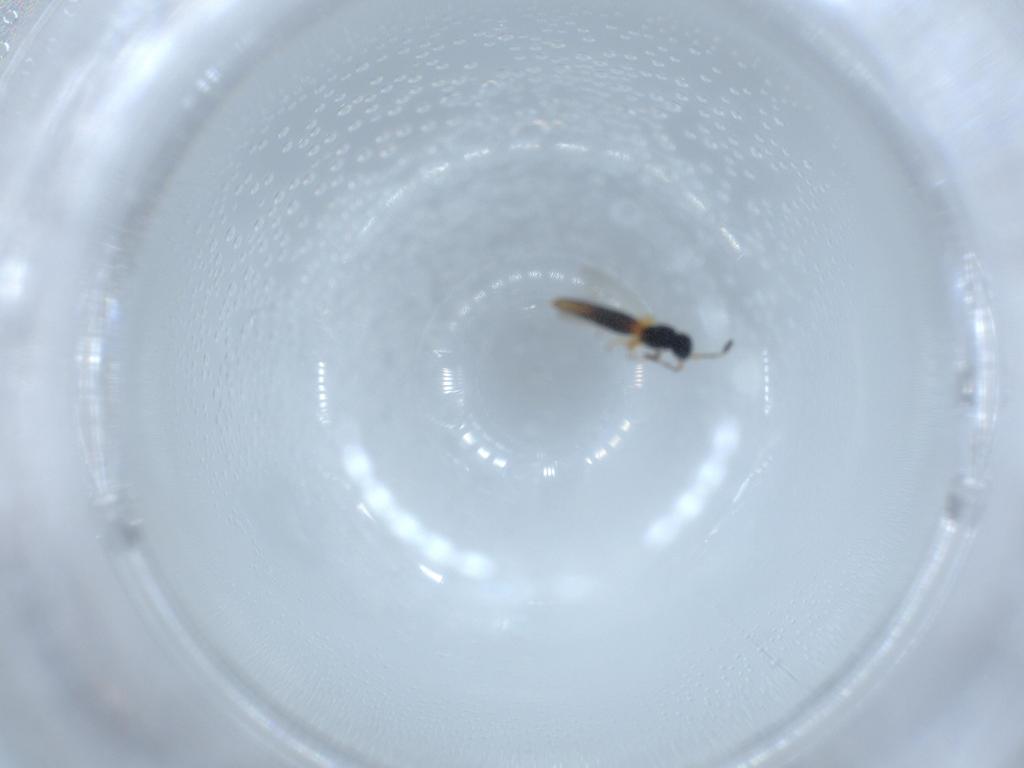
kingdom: Animalia
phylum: Arthropoda
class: Insecta
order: Hymenoptera
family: Scelionidae
